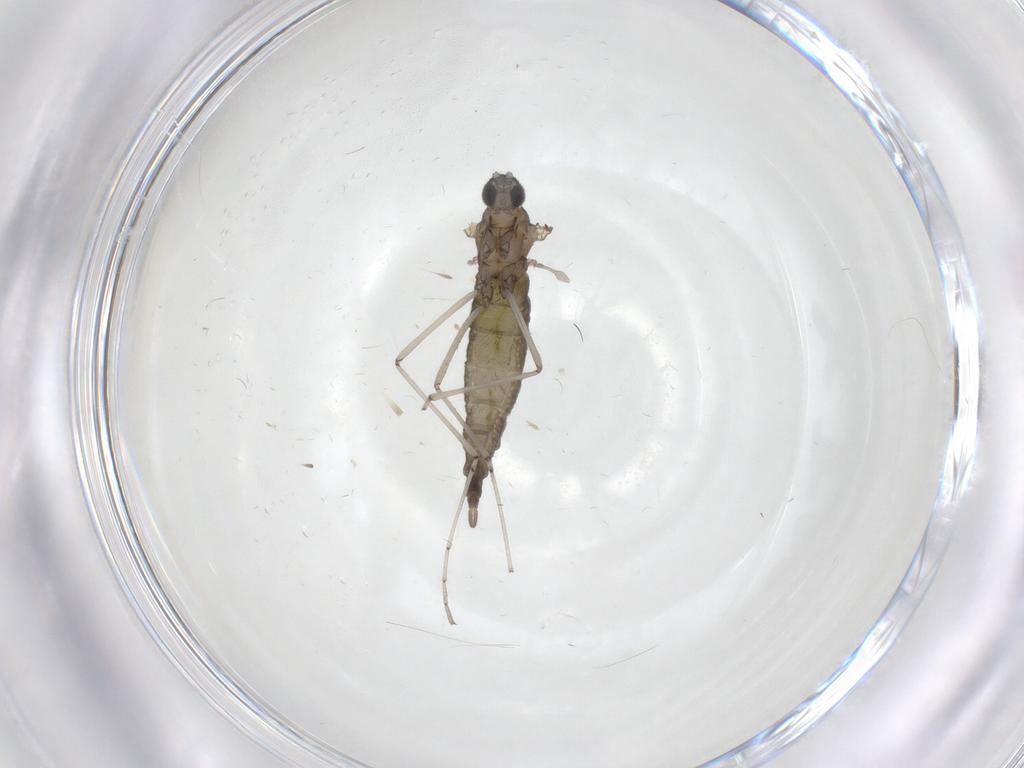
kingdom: Animalia
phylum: Arthropoda
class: Insecta
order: Diptera
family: Cecidomyiidae
